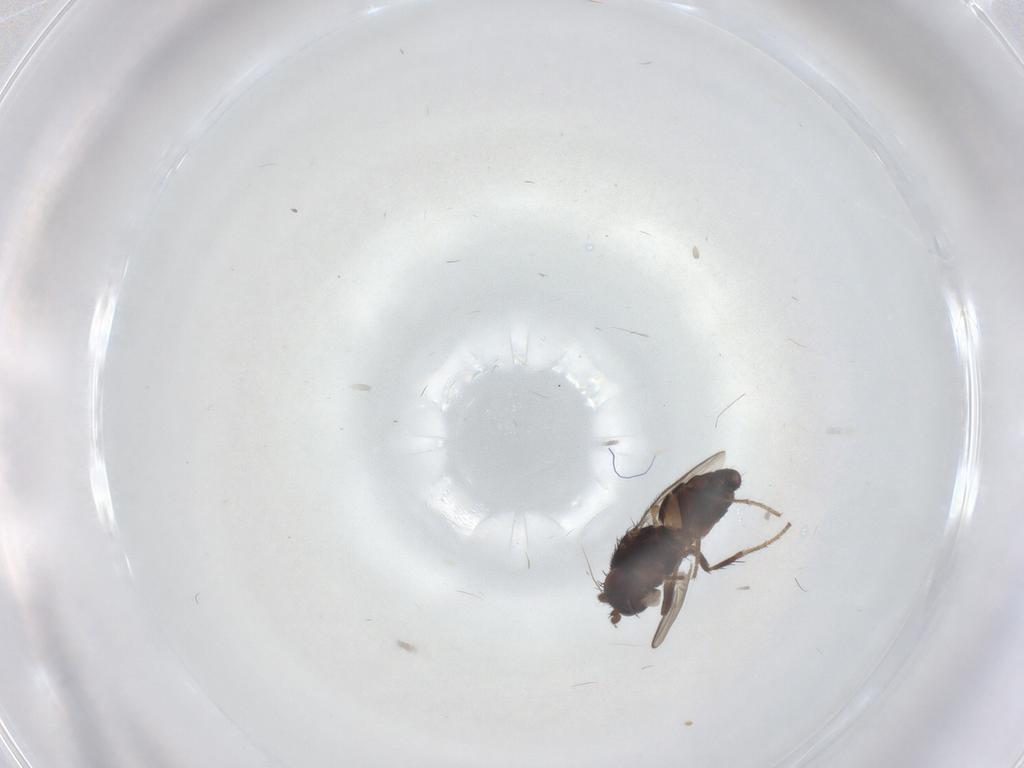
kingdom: Animalia
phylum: Arthropoda
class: Insecta
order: Diptera
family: Sphaeroceridae
